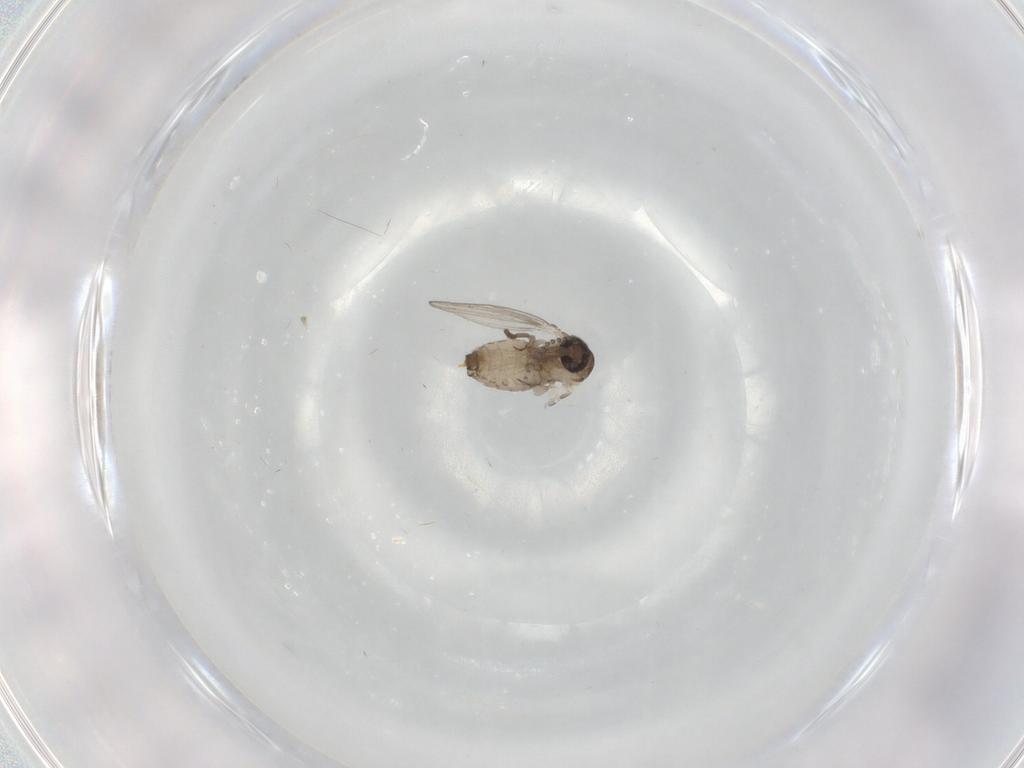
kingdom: Animalia
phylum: Arthropoda
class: Insecta
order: Diptera
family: Psychodidae
